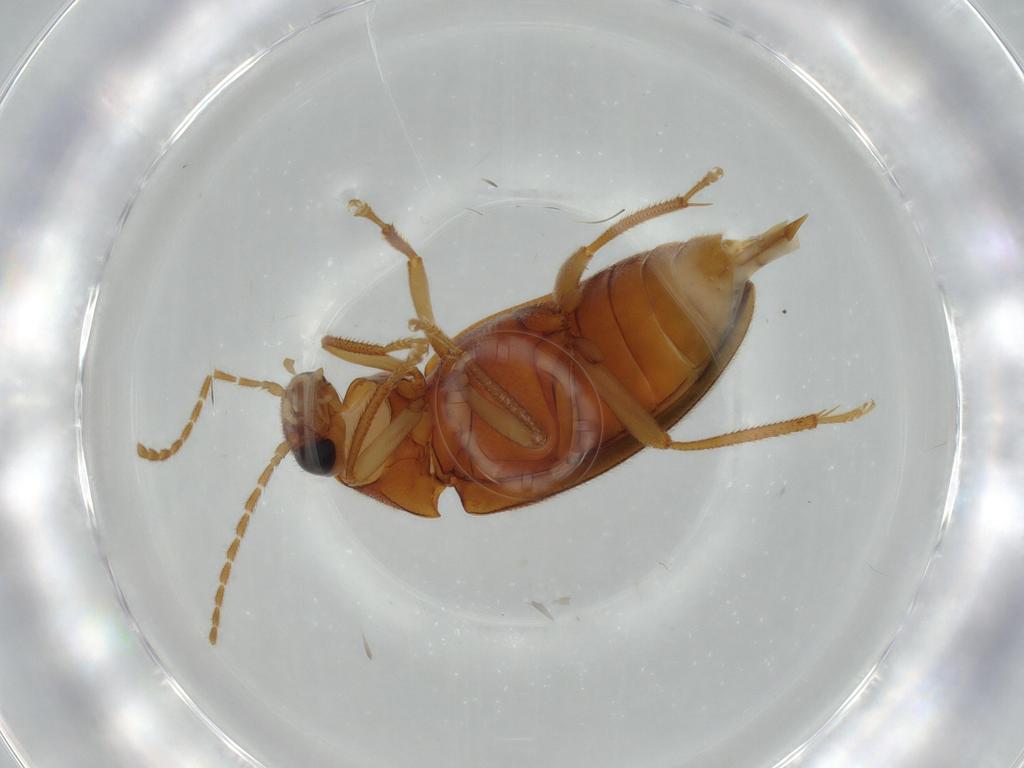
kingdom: Animalia
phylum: Arthropoda
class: Insecta
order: Coleoptera
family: Ptilodactylidae
